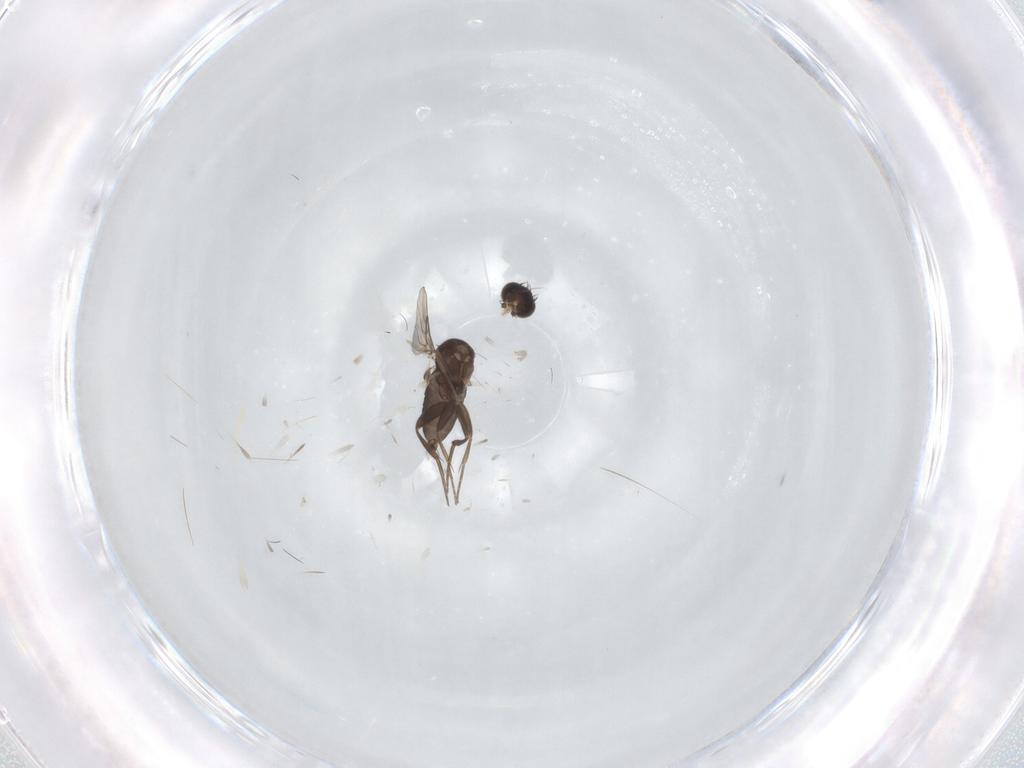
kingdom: Animalia
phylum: Arthropoda
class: Insecta
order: Diptera
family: Phoridae
